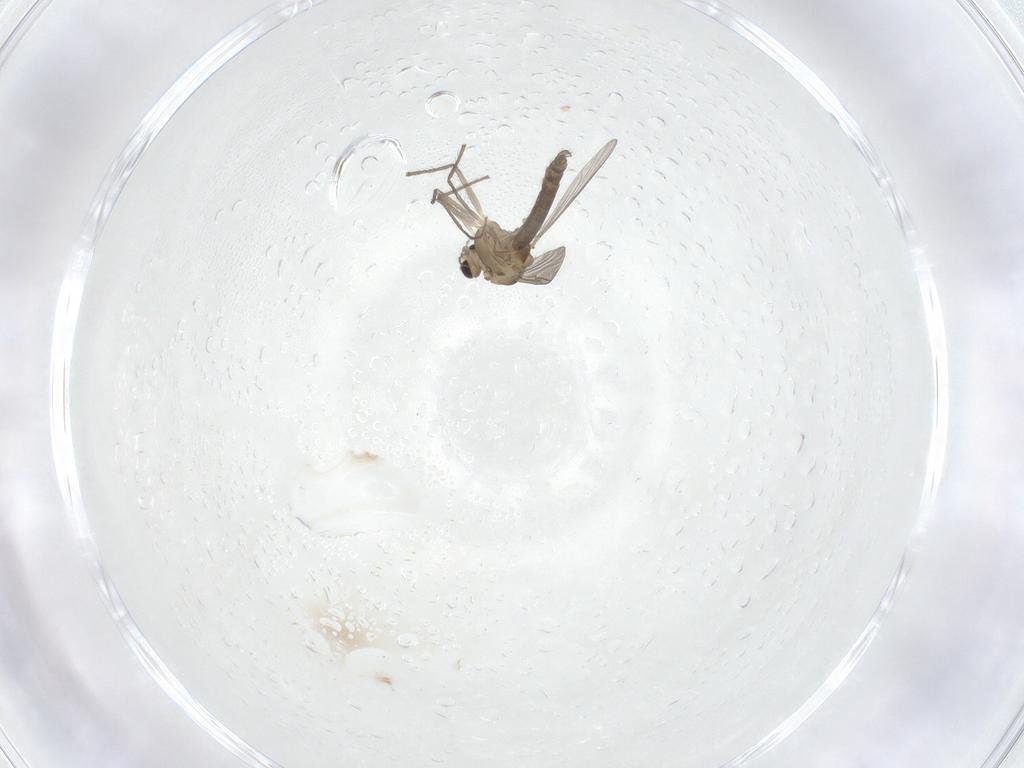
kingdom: Animalia
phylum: Arthropoda
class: Insecta
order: Diptera
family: Chironomidae
